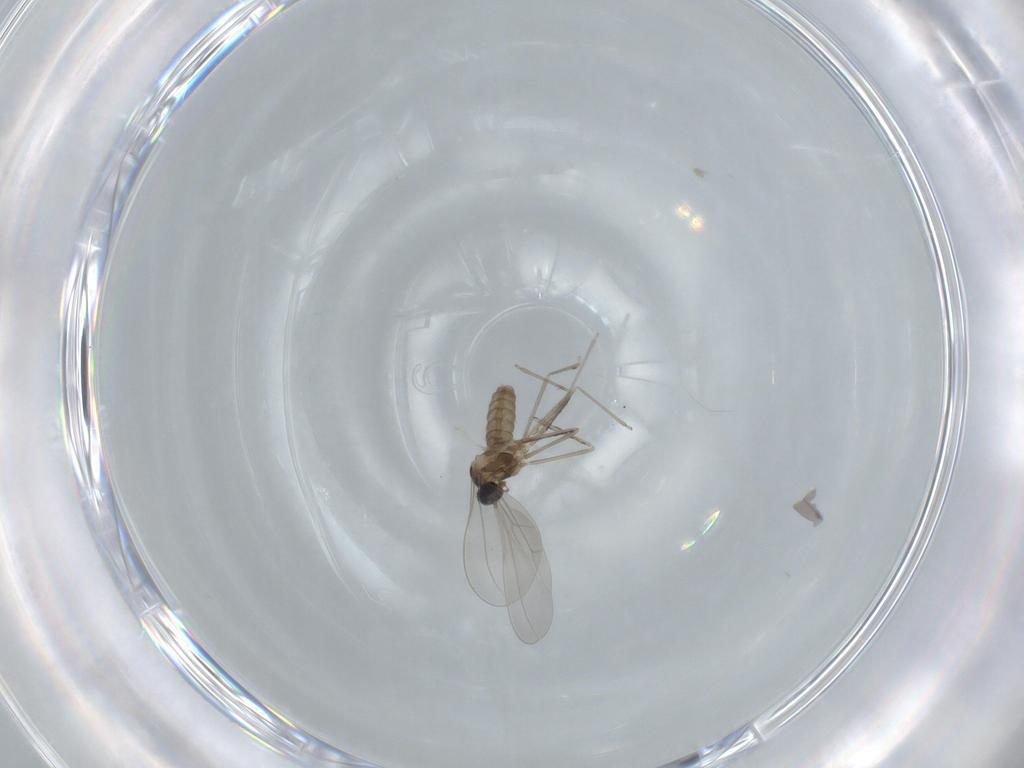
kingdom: Animalia
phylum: Arthropoda
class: Insecta
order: Diptera
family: Cecidomyiidae
